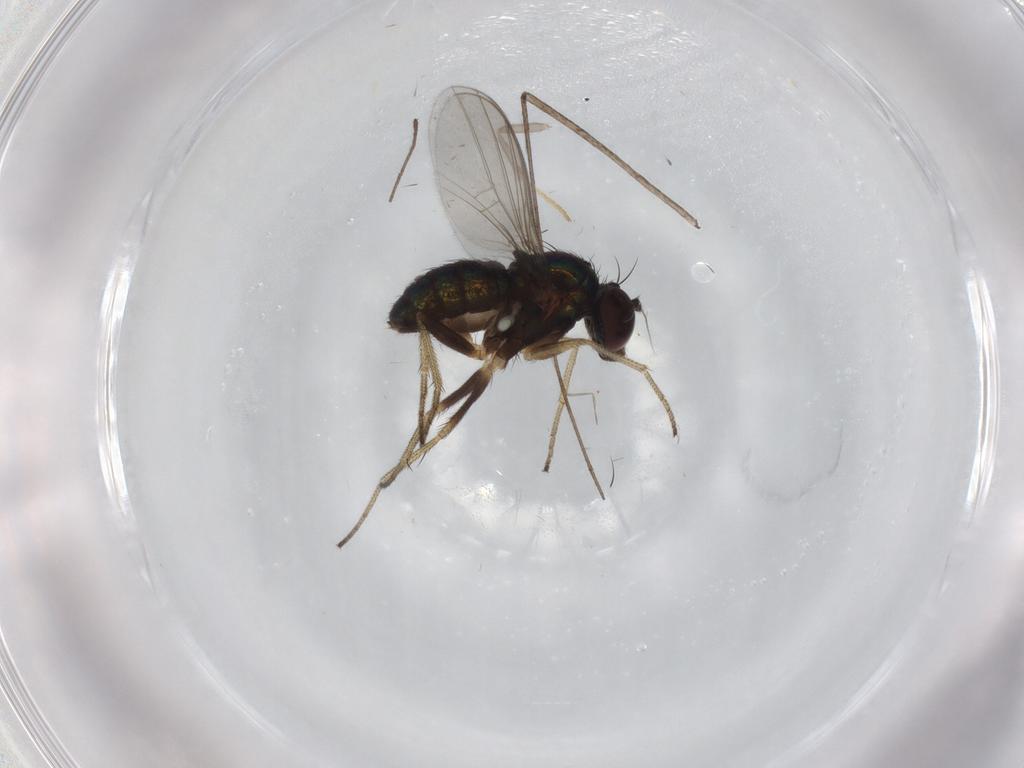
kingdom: Animalia
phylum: Arthropoda
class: Insecta
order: Diptera
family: Limoniidae
